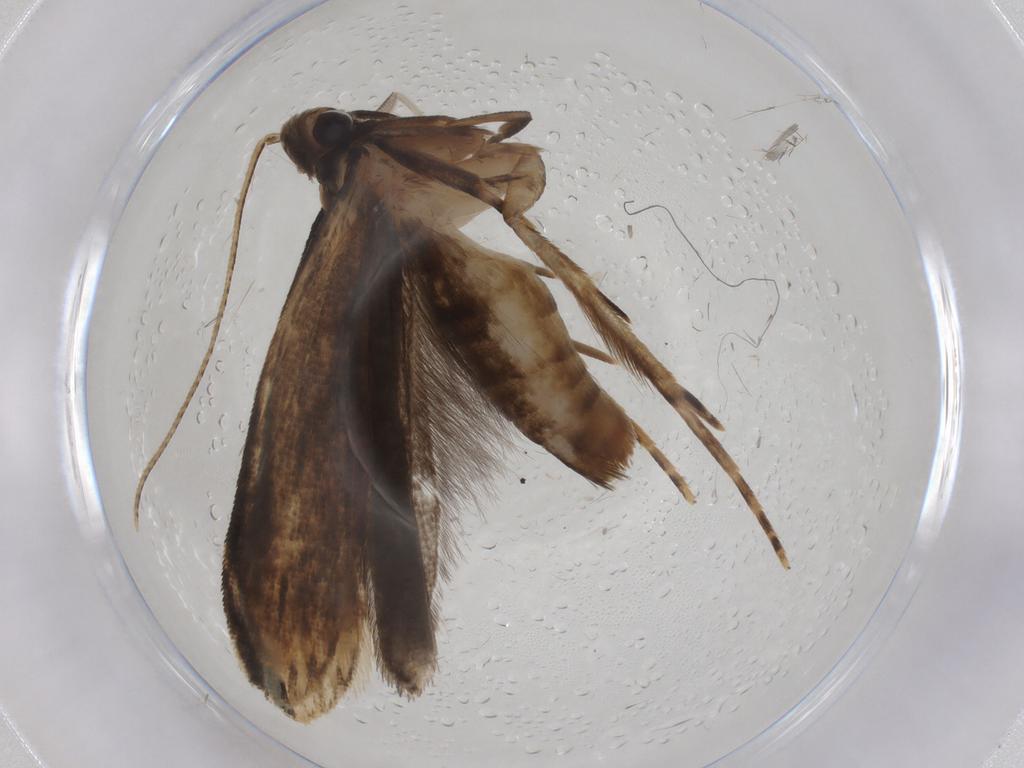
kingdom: Animalia
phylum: Arthropoda
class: Insecta
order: Lepidoptera
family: Gelechiidae
